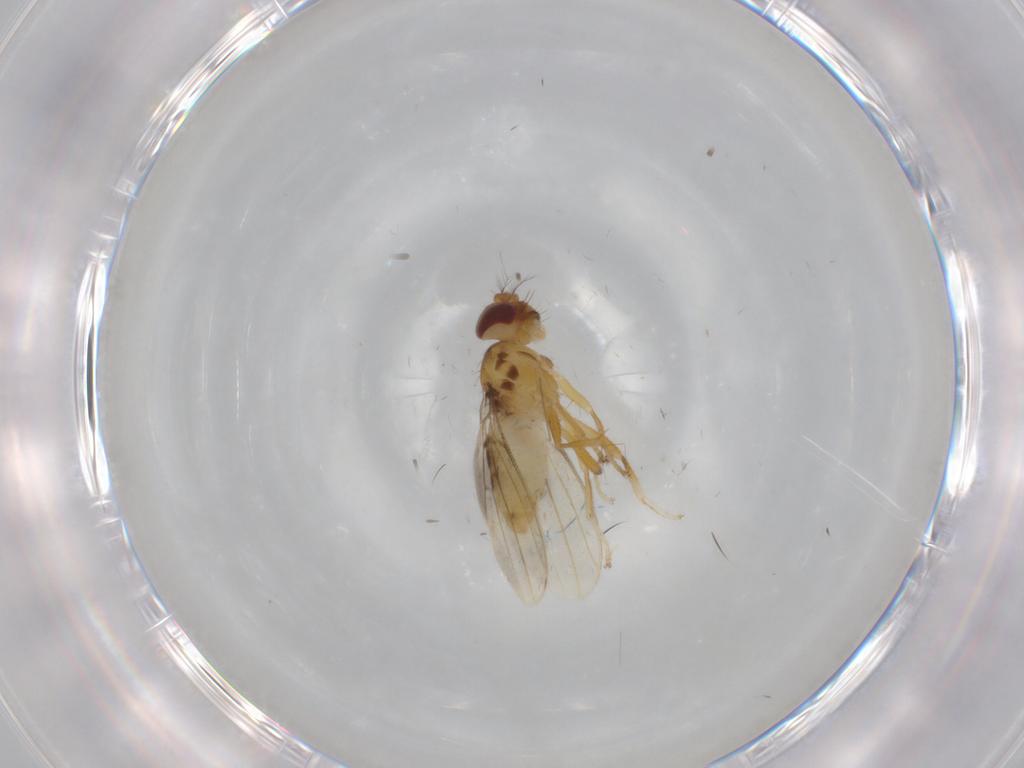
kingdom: Animalia
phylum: Arthropoda
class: Insecta
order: Diptera
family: Periscelididae
